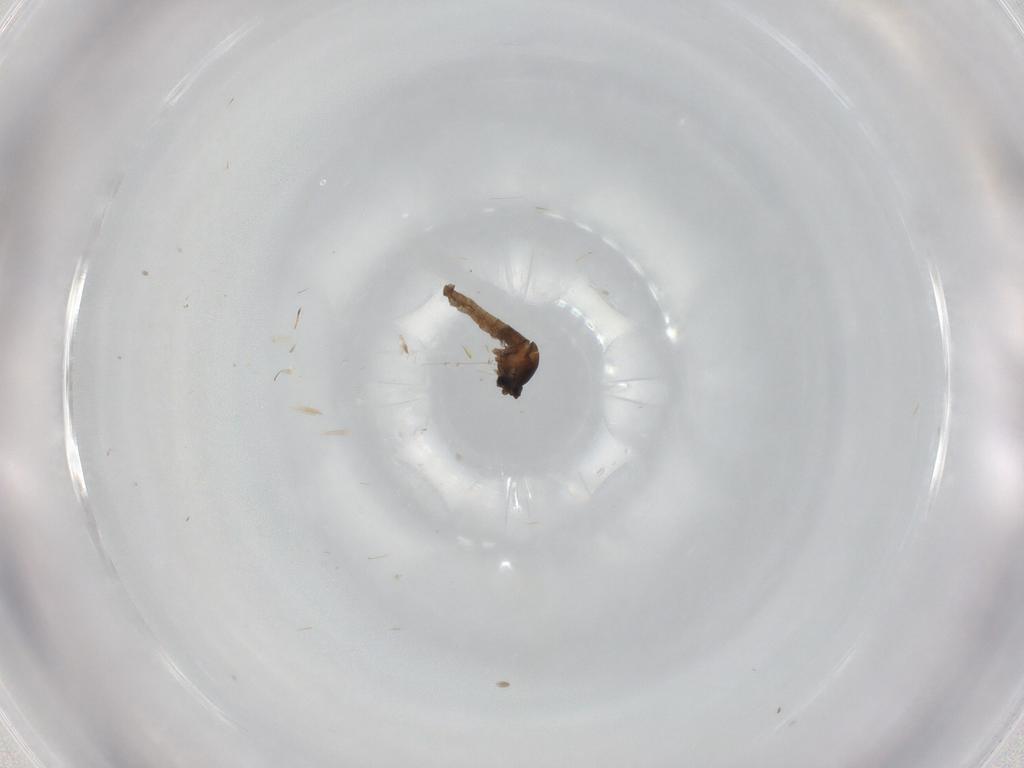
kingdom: Animalia
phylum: Arthropoda
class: Insecta
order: Diptera
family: Cecidomyiidae
